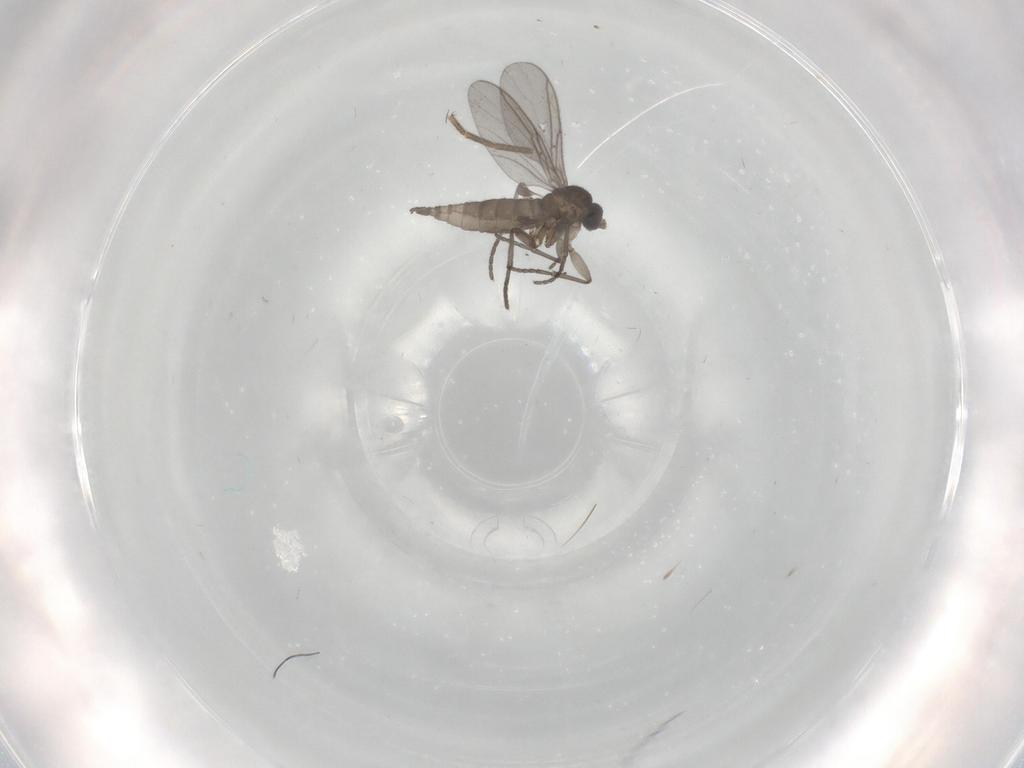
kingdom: Animalia
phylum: Arthropoda
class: Insecta
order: Diptera
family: Mycetophilidae
